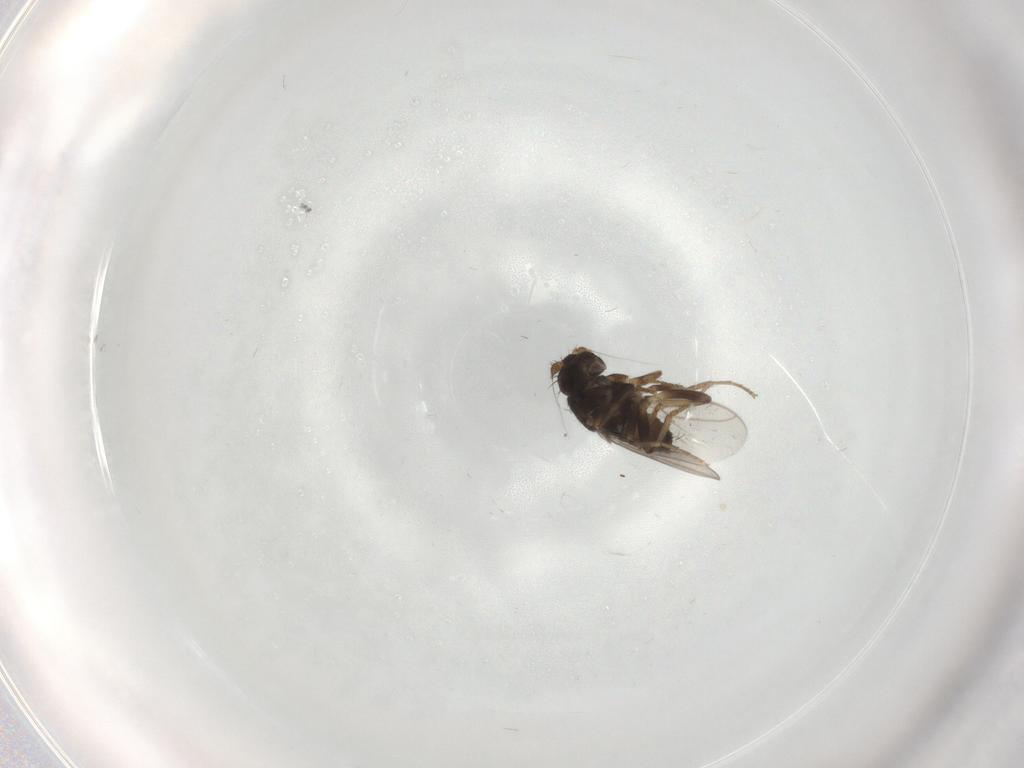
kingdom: Animalia
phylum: Arthropoda
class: Insecta
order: Diptera
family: Sphaeroceridae
